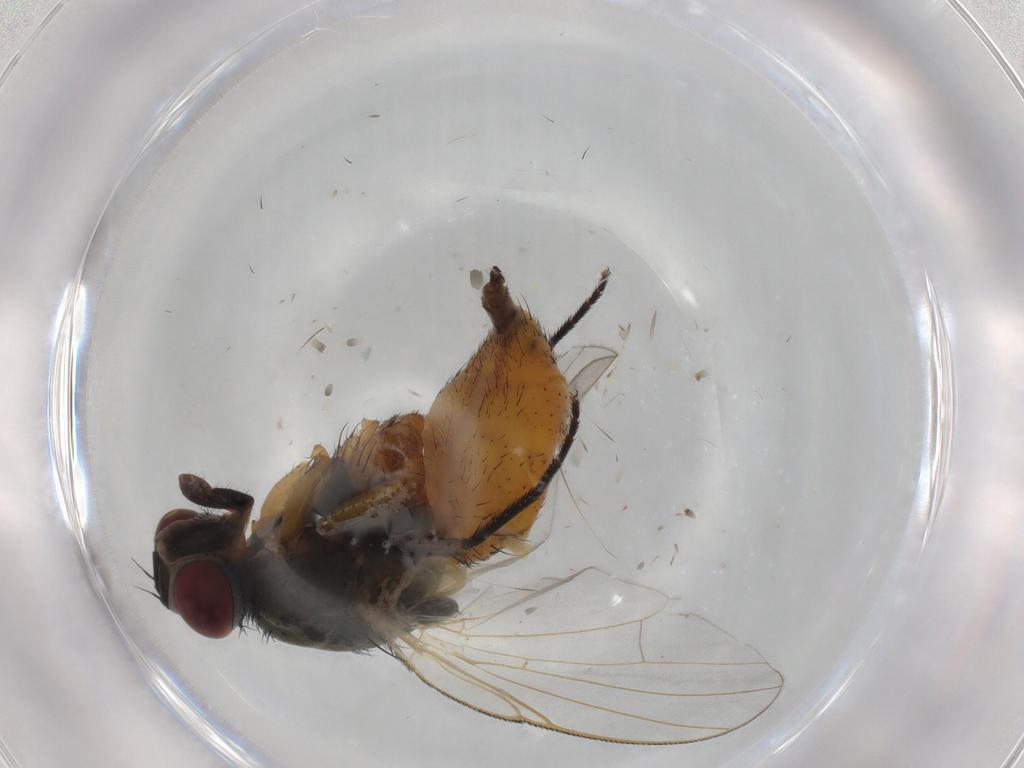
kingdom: Animalia
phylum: Arthropoda
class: Insecta
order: Diptera
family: Muscidae
